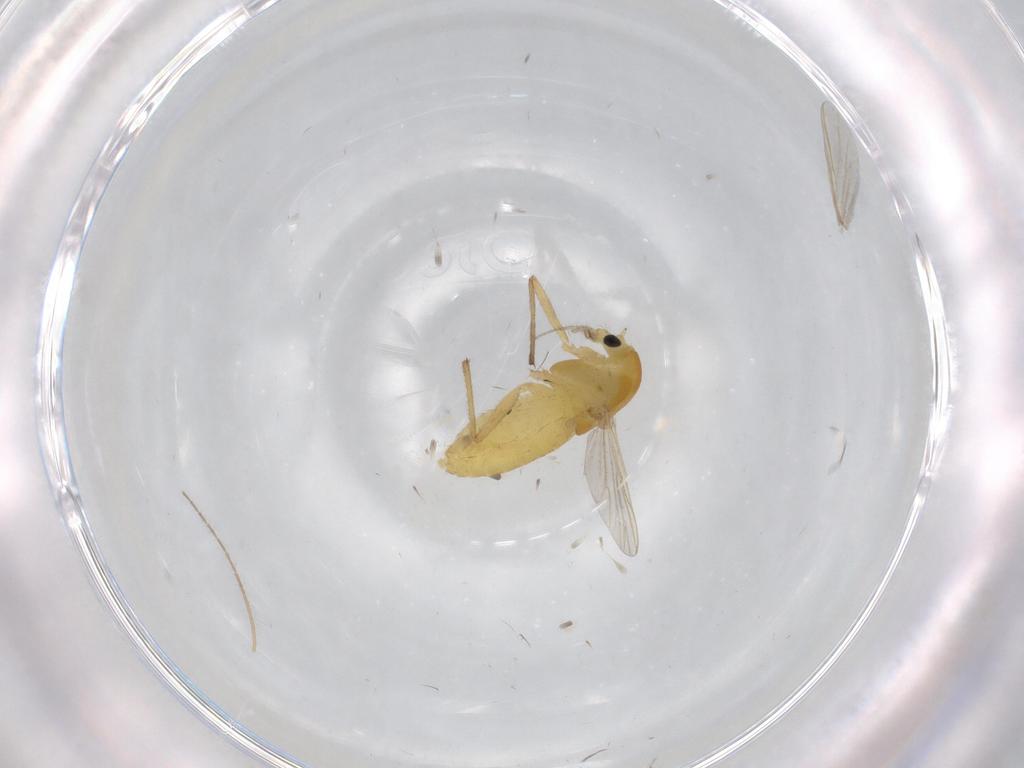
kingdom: Animalia
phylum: Arthropoda
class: Insecta
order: Diptera
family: Chironomidae
